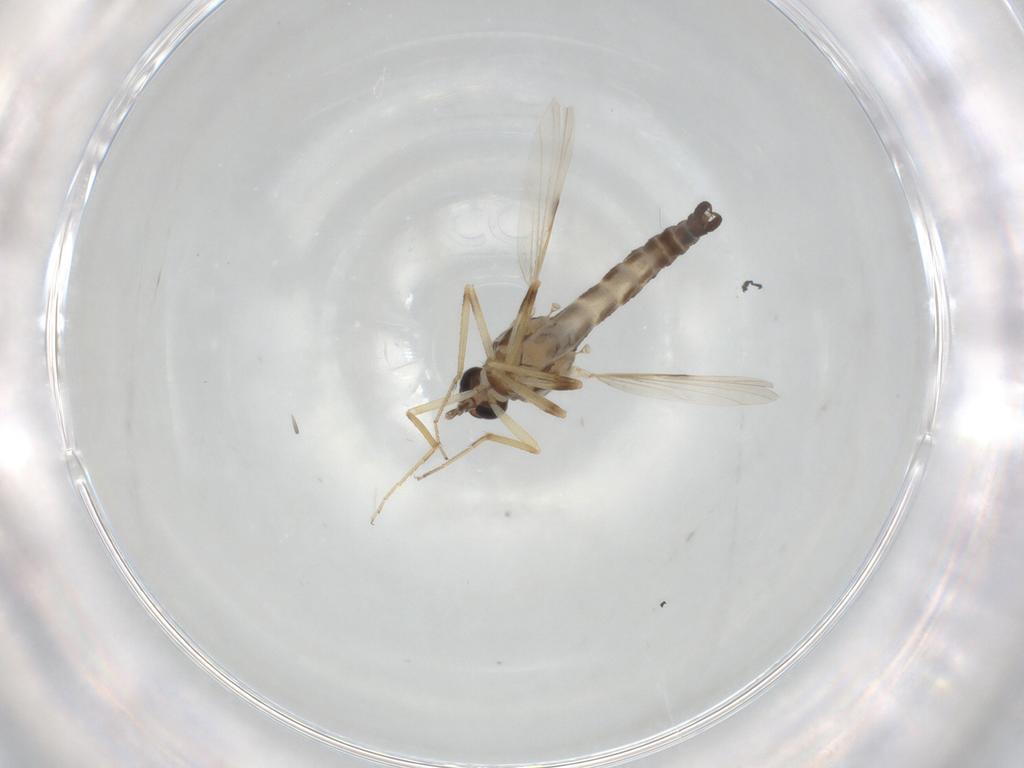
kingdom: Animalia
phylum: Arthropoda
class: Insecta
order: Diptera
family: Ceratopogonidae
